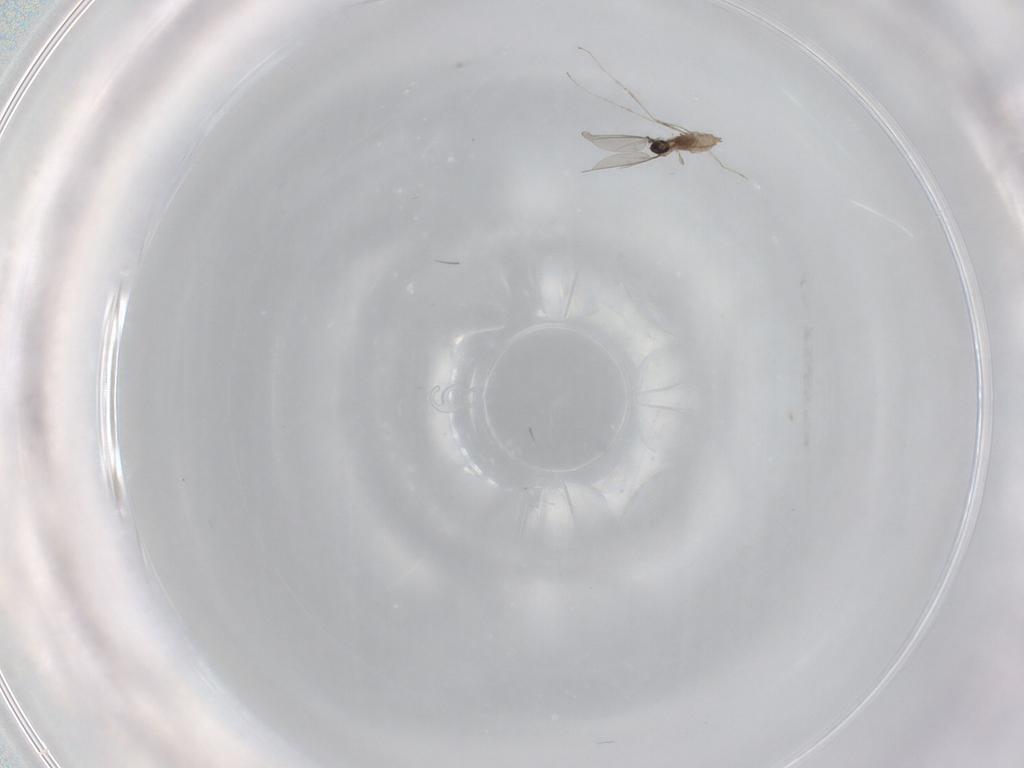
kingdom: Animalia
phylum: Arthropoda
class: Insecta
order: Diptera
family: Cecidomyiidae
